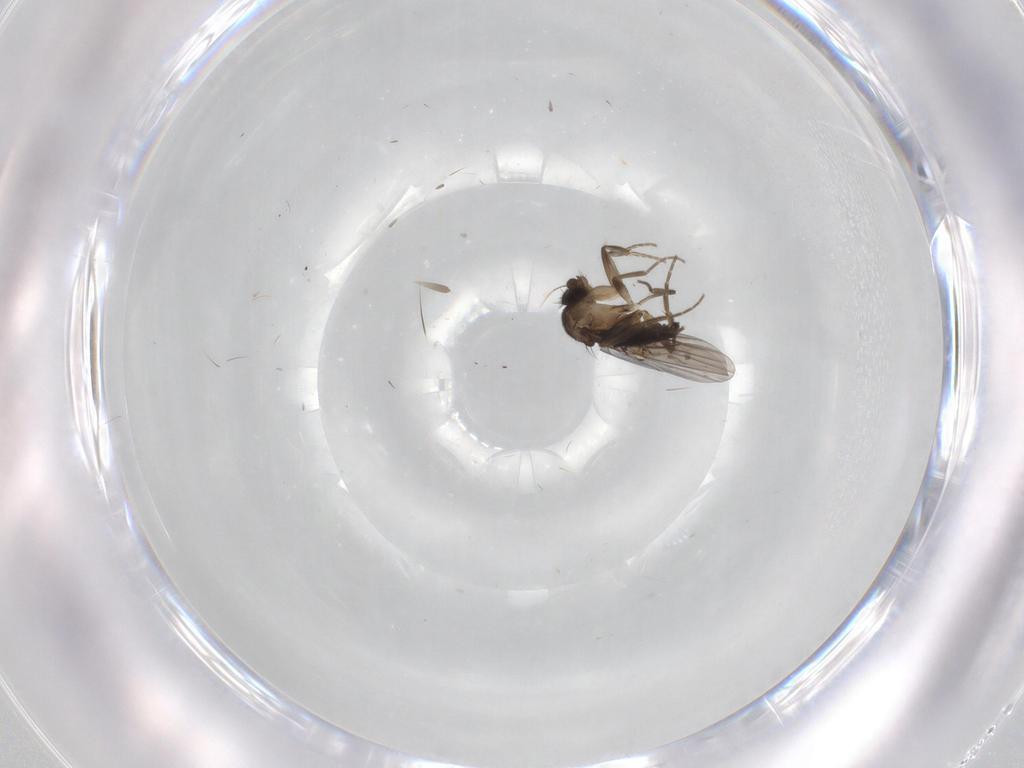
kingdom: Animalia
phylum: Arthropoda
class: Insecta
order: Diptera
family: Phoridae
